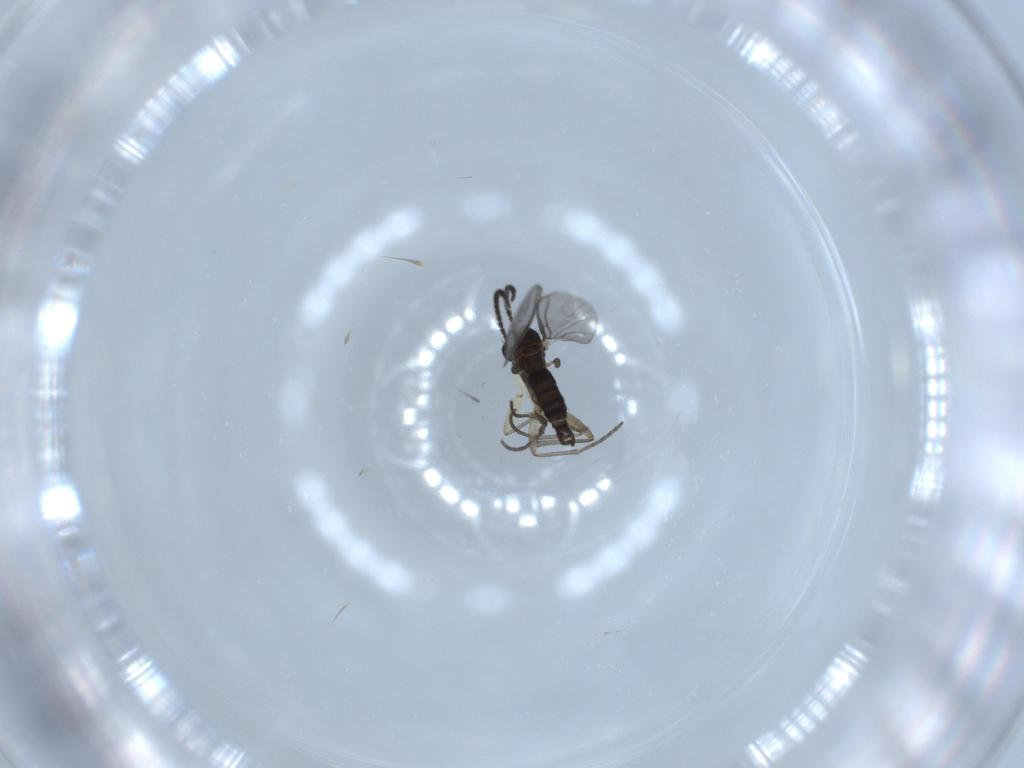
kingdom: Animalia
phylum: Arthropoda
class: Insecta
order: Diptera
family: Sciaridae
